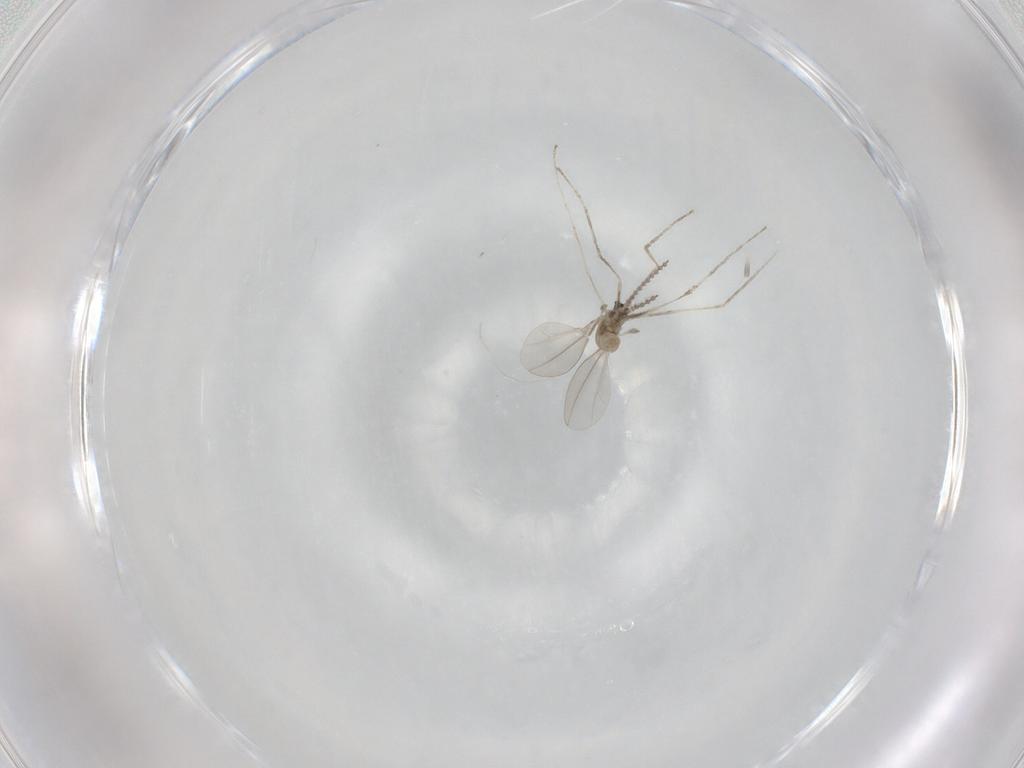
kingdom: Animalia
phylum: Arthropoda
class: Insecta
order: Diptera
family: Cecidomyiidae
